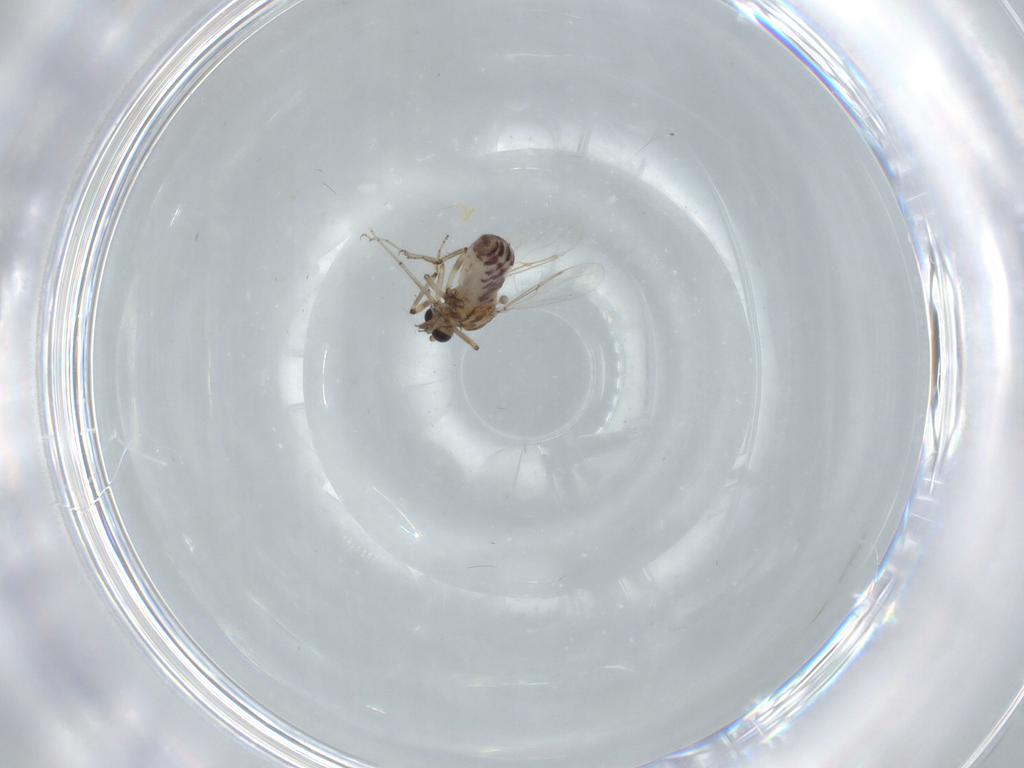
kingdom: Animalia
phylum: Arthropoda
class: Insecta
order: Diptera
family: Ceratopogonidae
